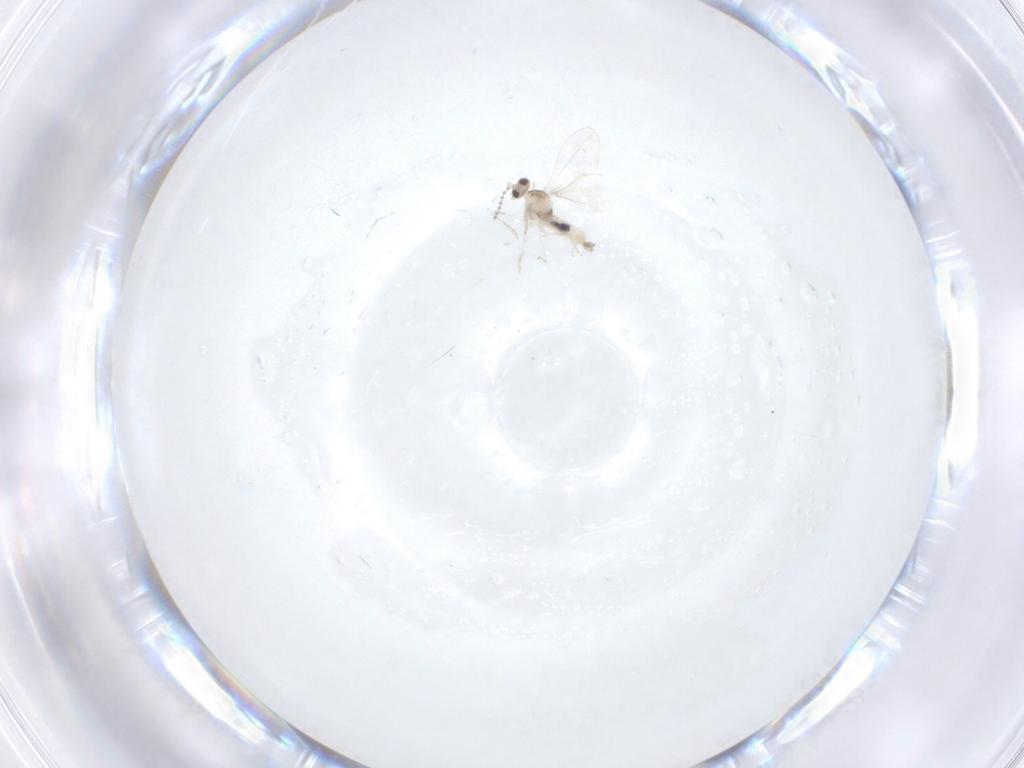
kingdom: Animalia
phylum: Arthropoda
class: Insecta
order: Diptera
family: Cecidomyiidae
